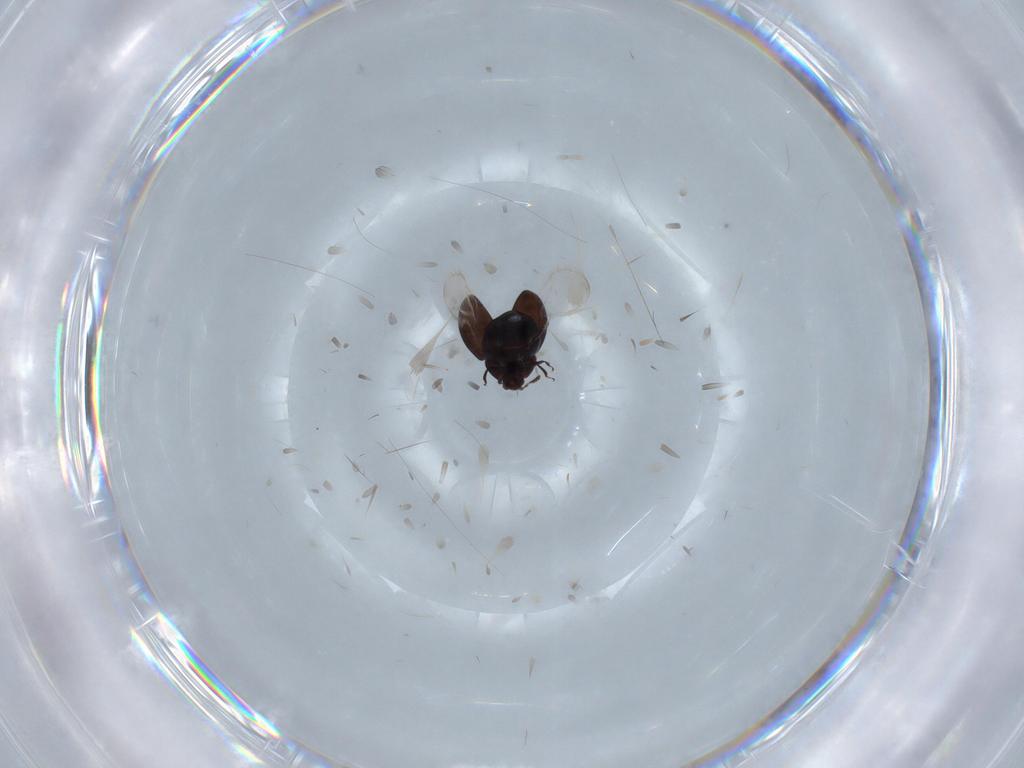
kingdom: Animalia
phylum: Arthropoda
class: Insecta
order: Coleoptera
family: Corylophidae
